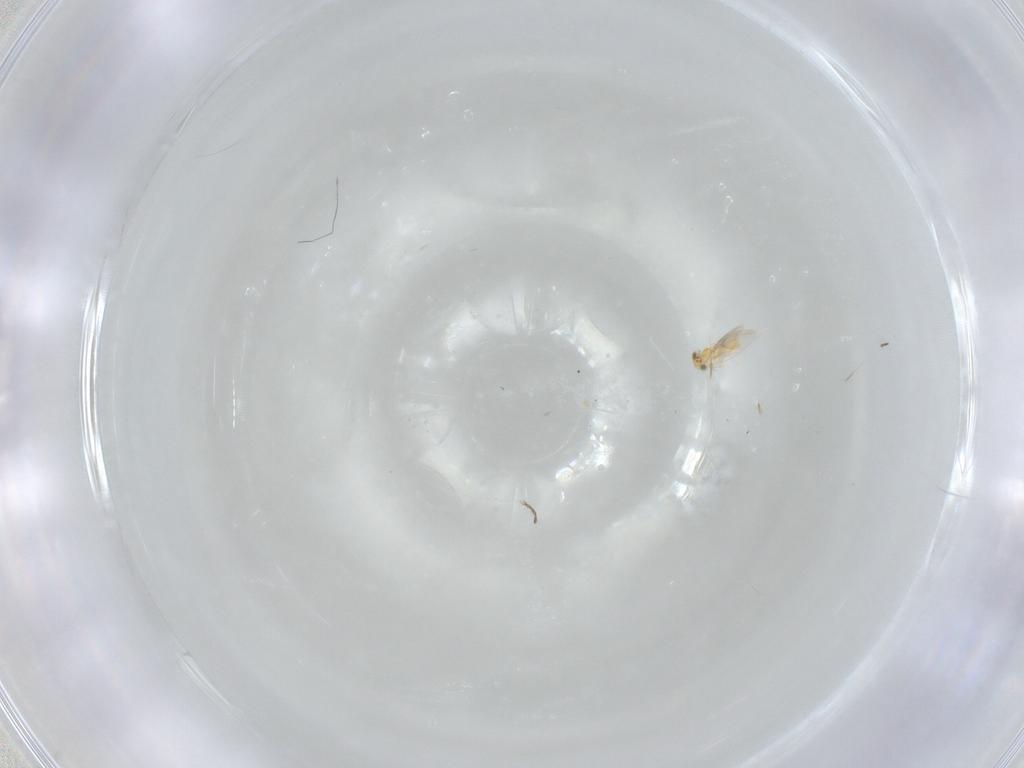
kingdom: Animalia
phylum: Arthropoda
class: Insecta
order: Hymenoptera
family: Aphelinidae
